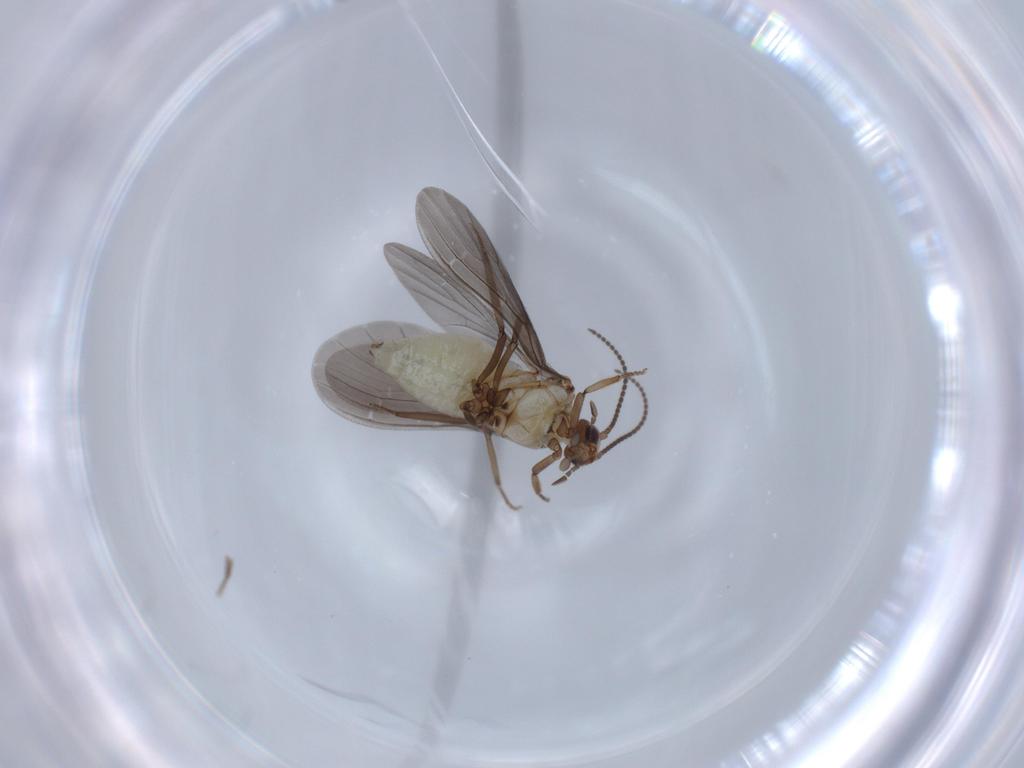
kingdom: Animalia
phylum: Arthropoda
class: Insecta
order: Neuroptera
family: Coniopterygidae
